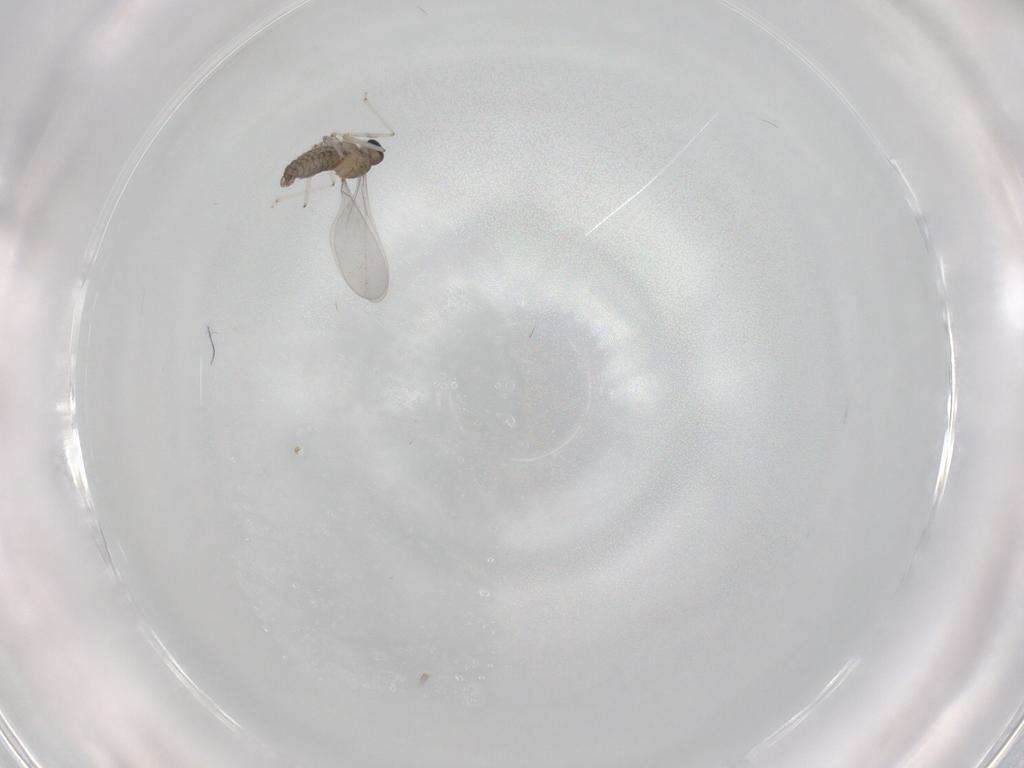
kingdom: Animalia
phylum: Arthropoda
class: Insecta
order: Diptera
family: Cecidomyiidae
